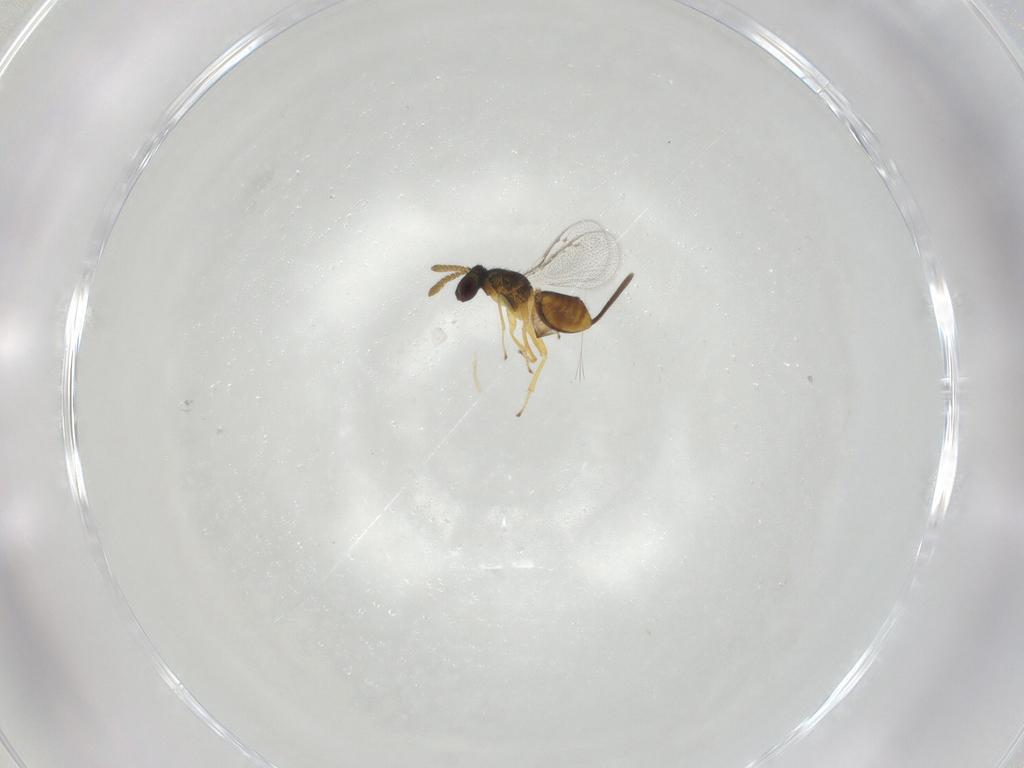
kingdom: Animalia
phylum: Arthropoda
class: Insecta
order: Hymenoptera
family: Pirenidae
